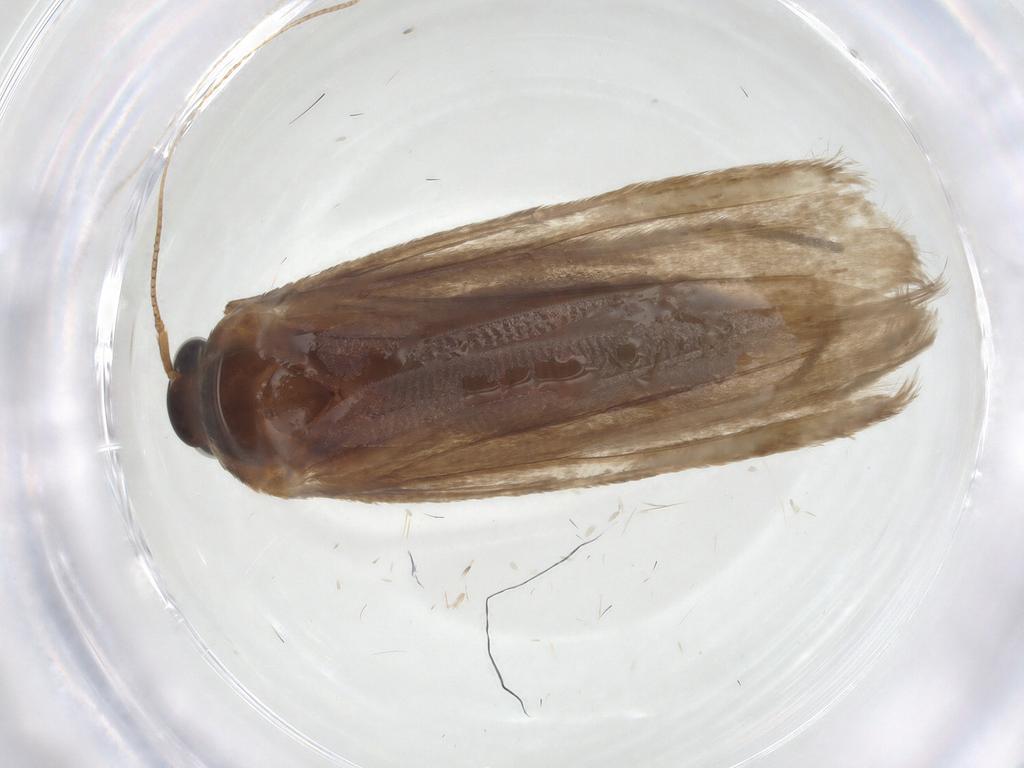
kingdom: Animalia
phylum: Arthropoda
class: Insecta
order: Lepidoptera
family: Blastobasidae
